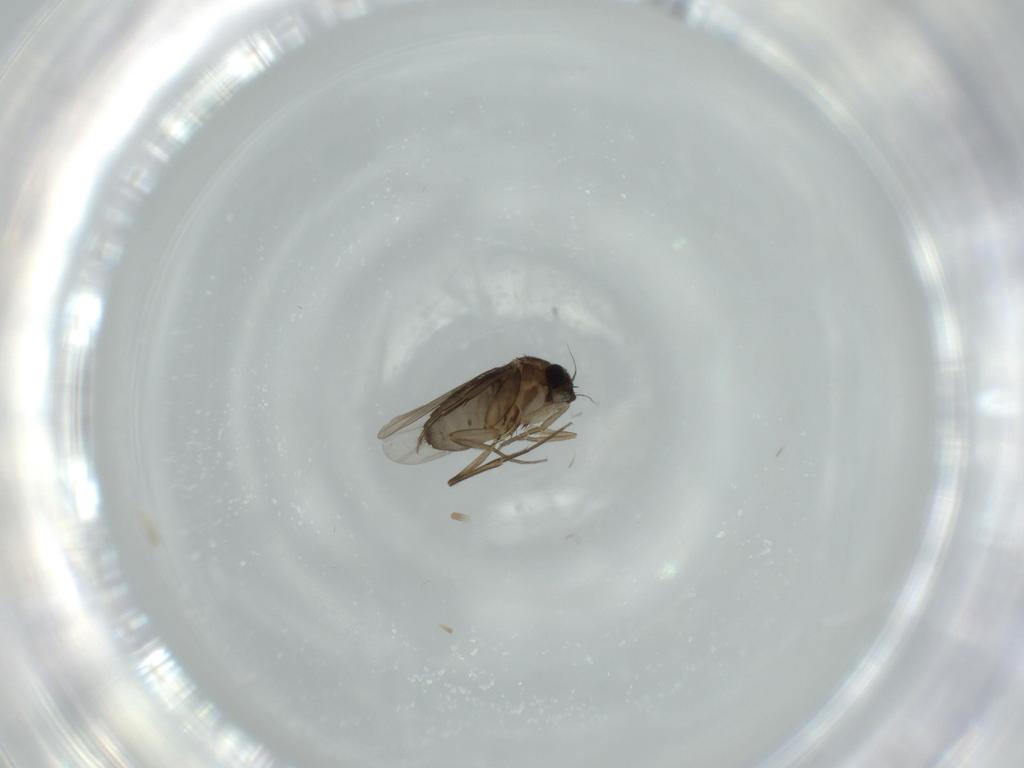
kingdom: Animalia
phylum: Arthropoda
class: Insecta
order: Diptera
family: Phoridae
